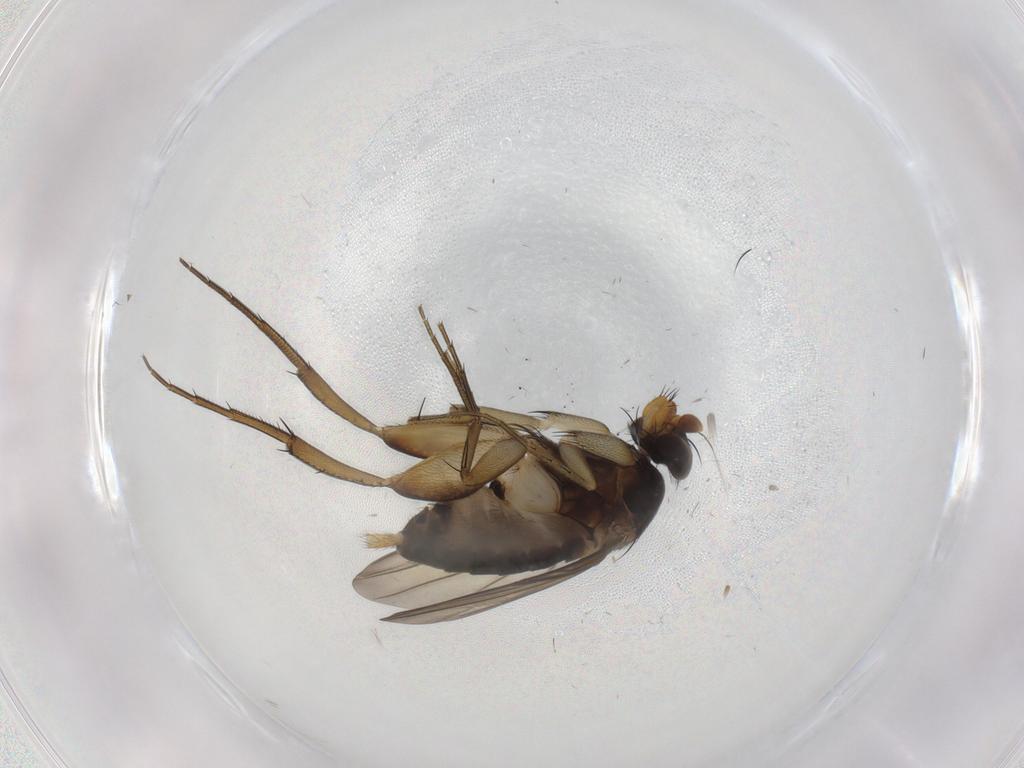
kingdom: Animalia
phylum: Arthropoda
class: Insecta
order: Diptera
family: Phoridae
